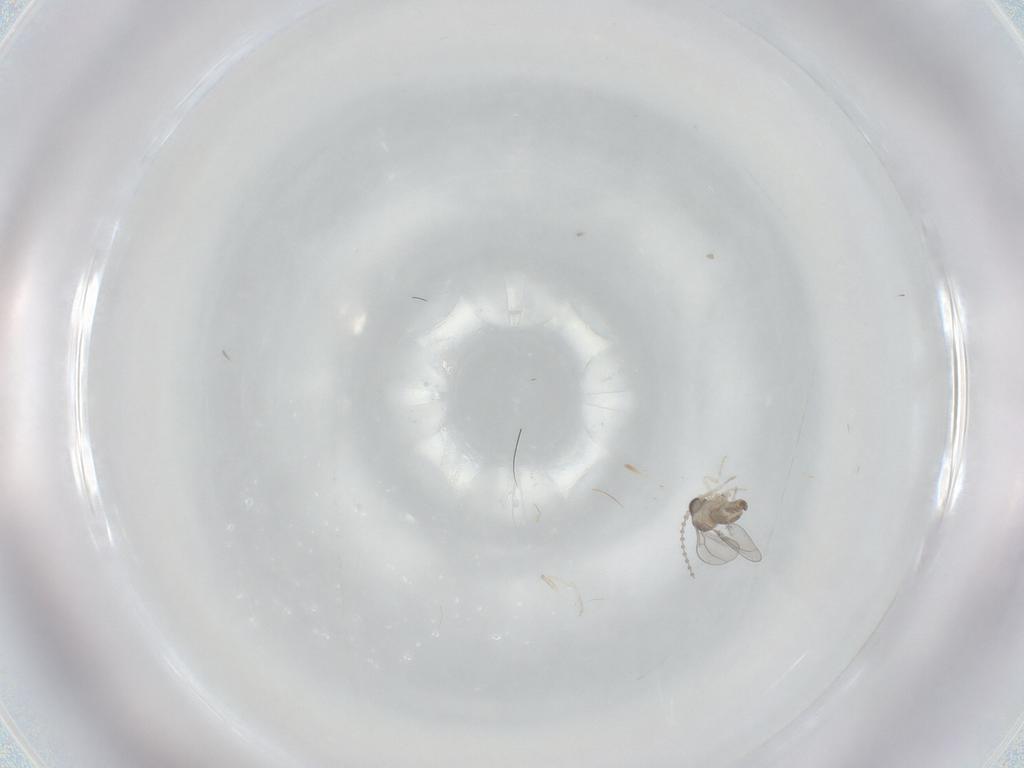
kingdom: Animalia
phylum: Arthropoda
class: Insecta
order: Diptera
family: Cecidomyiidae
